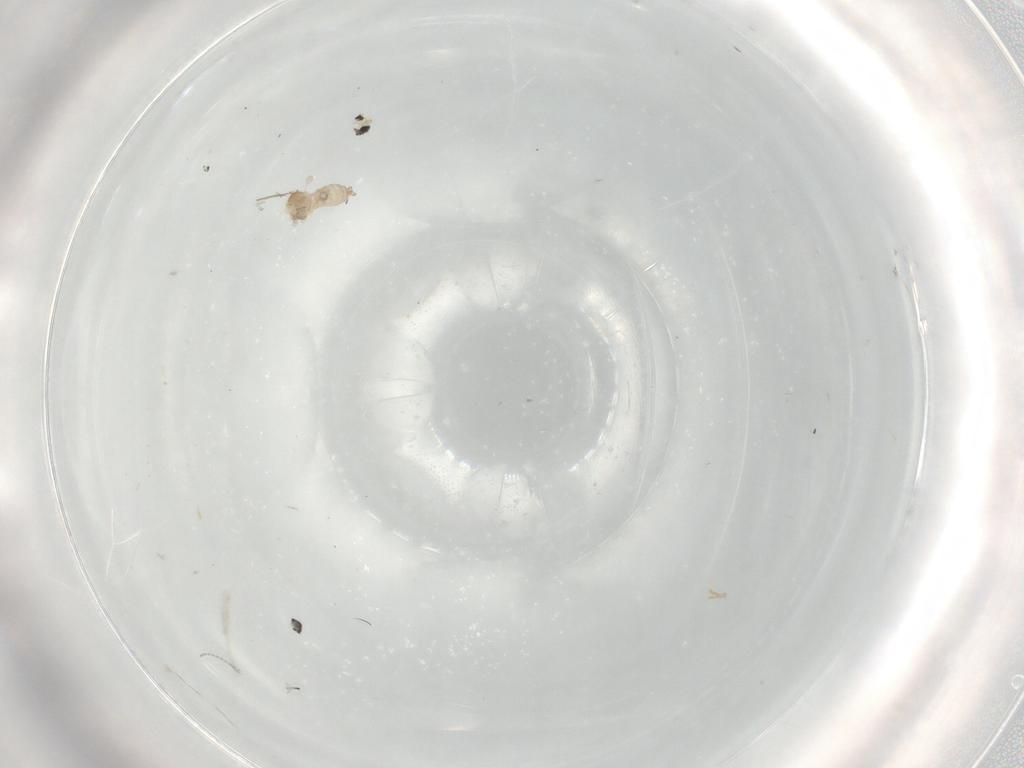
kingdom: Animalia
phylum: Arthropoda
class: Insecta
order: Diptera
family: Cecidomyiidae
